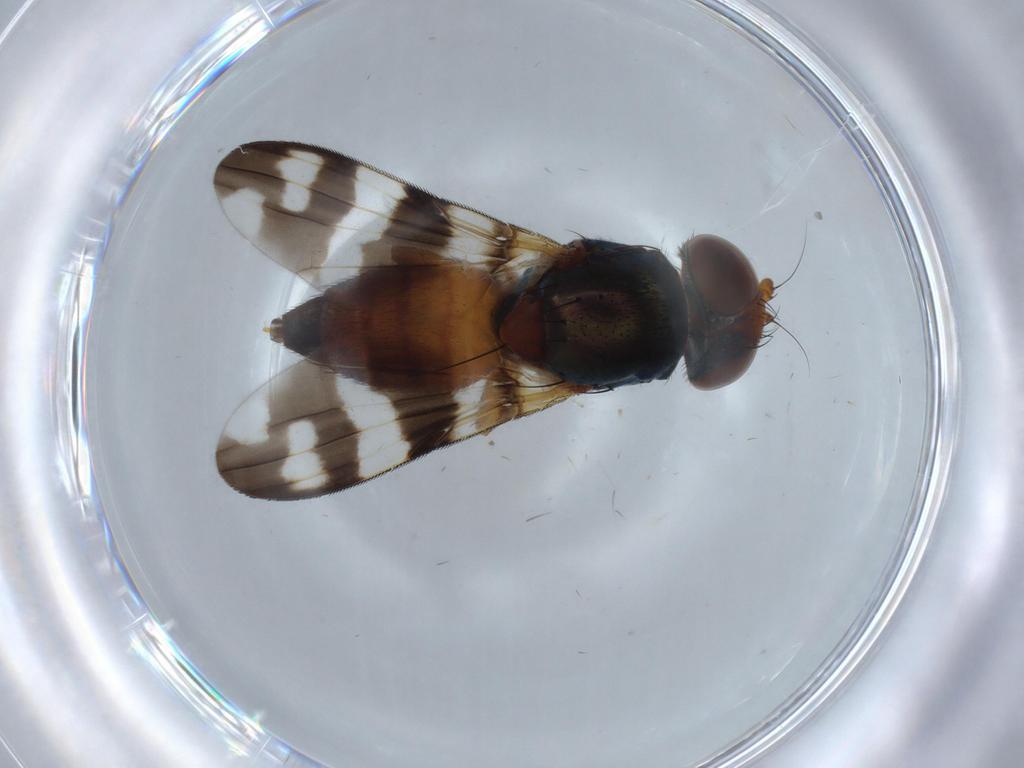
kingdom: Animalia
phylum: Arthropoda
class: Insecta
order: Diptera
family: Ulidiidae
